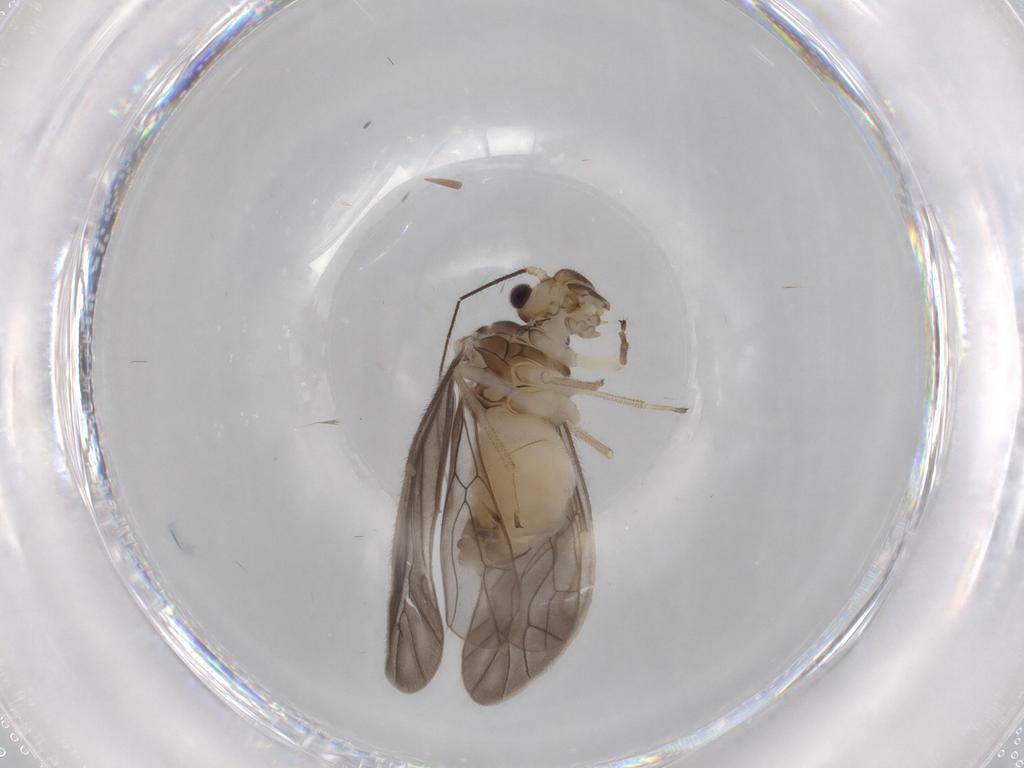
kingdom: Animalia
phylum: Arthropoda
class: Insecta
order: Psocodea
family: Caeciliusidae
